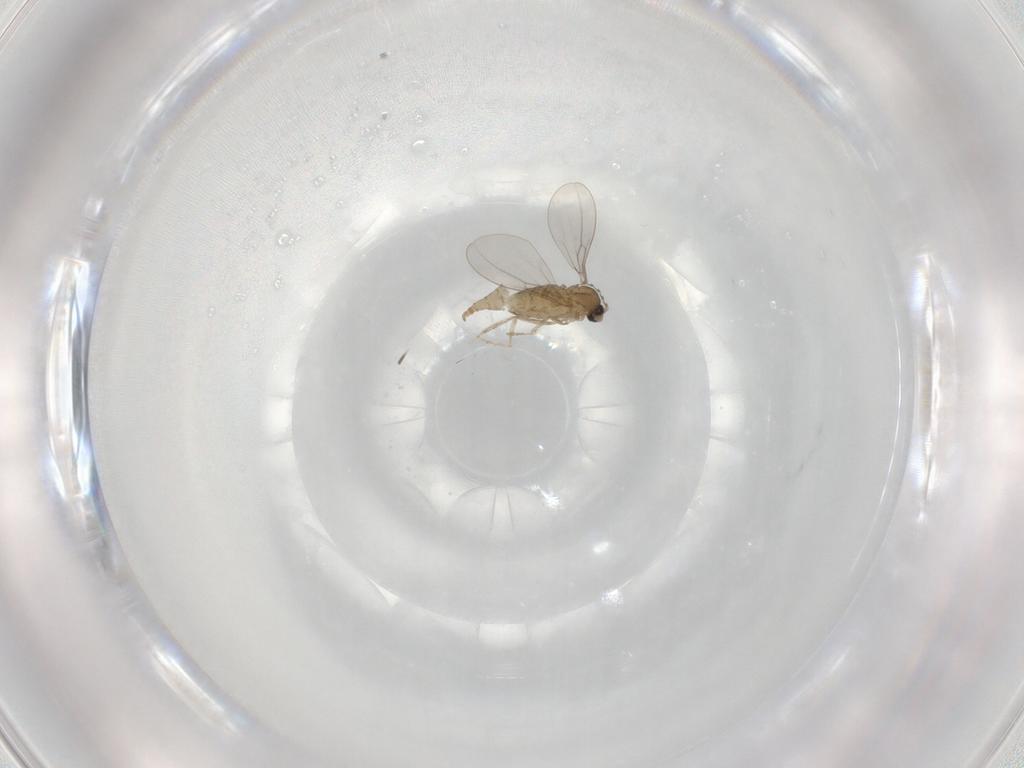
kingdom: Animalia
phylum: Arthropoda
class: Insecta
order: Diptera
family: Cecidomyiidae
